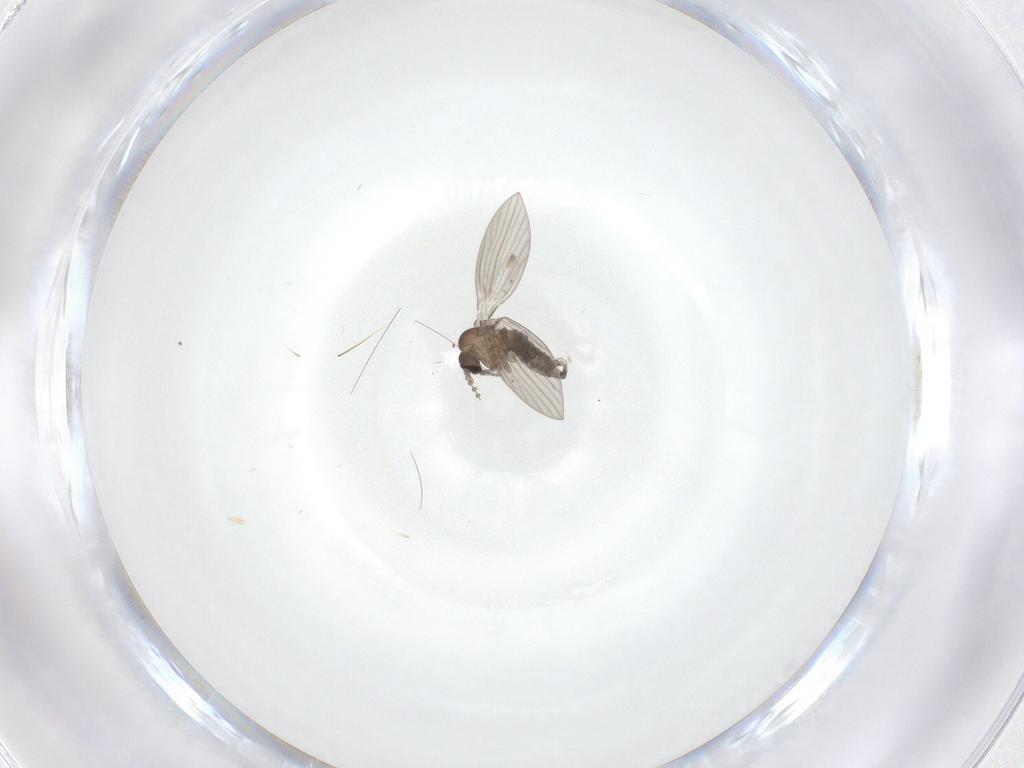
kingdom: Animalia
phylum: Arthropoda
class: Insecta
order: Diptera
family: Psychodidae
